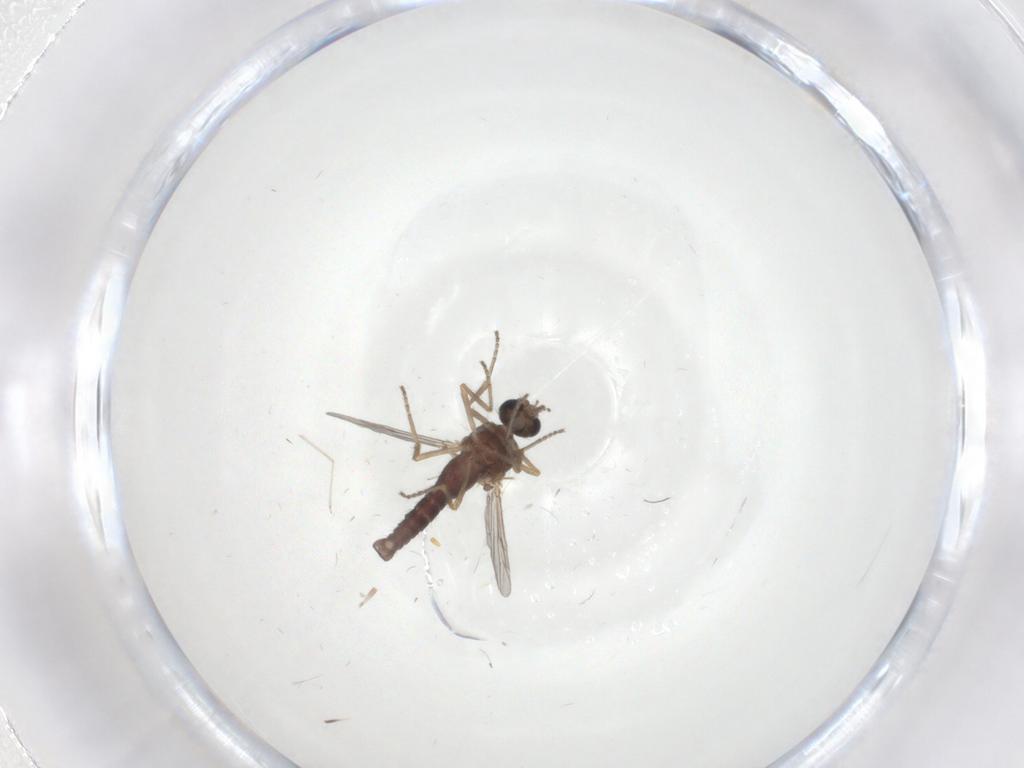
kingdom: Animalia
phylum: Arthropoda
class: Insecta
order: Diptera
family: Ceratopogonidae
